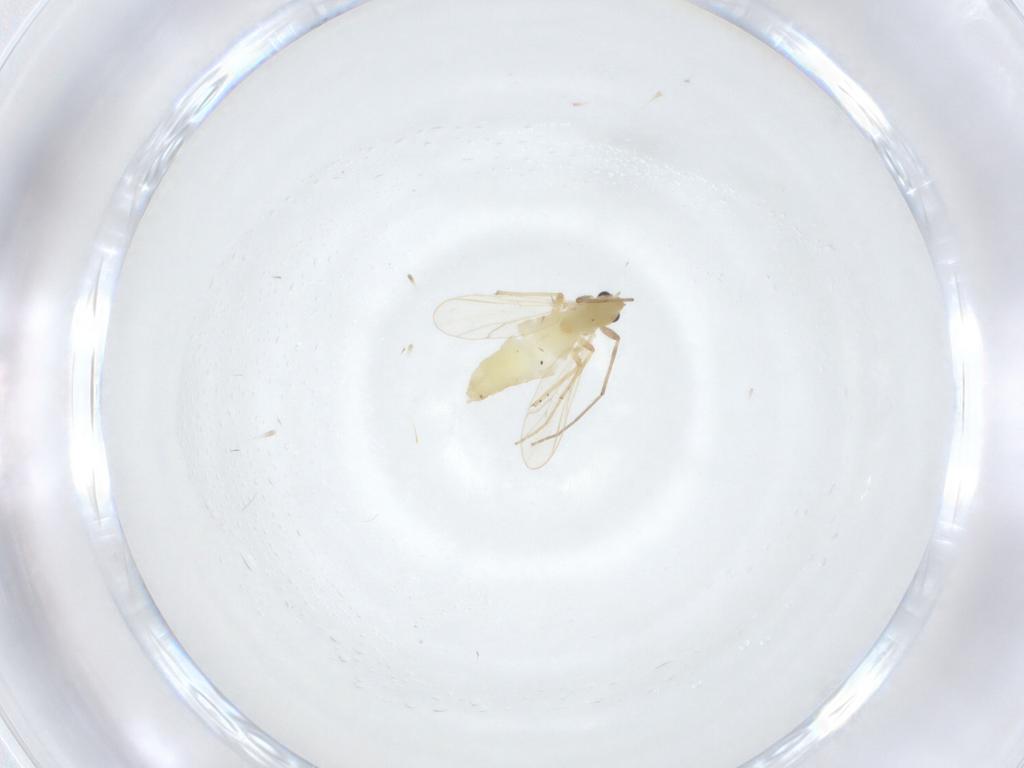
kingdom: Animalia
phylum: Arthropoda
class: Insecta
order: Diptera
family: Chironomidae
